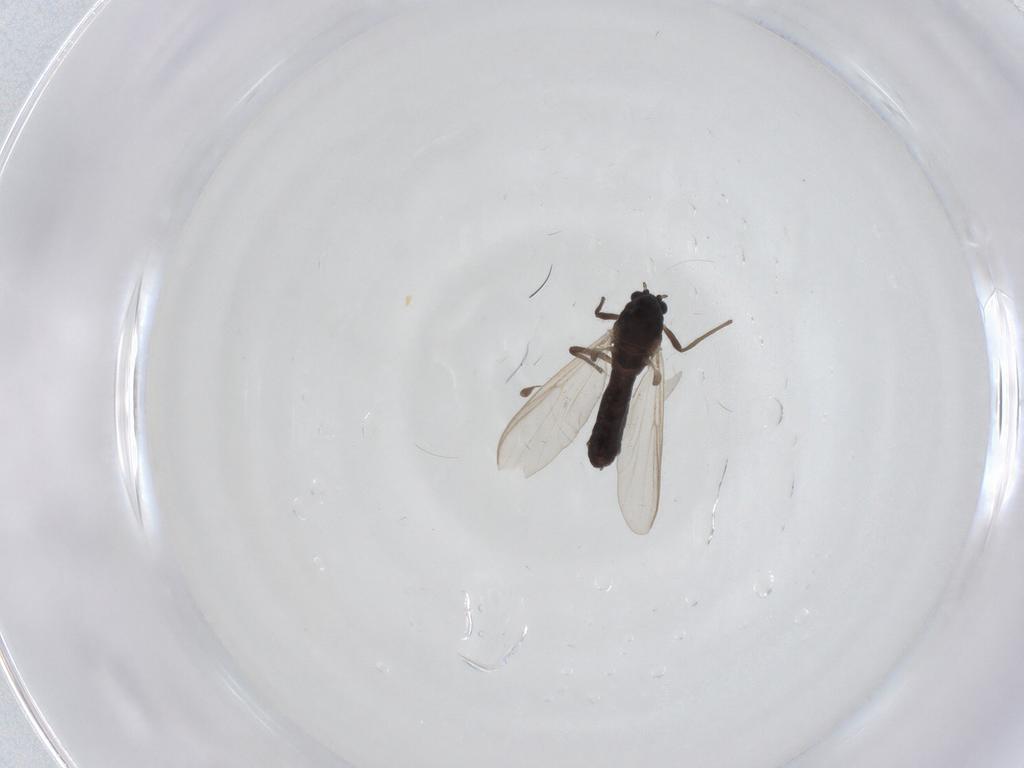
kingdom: Animalia
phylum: Arthropoda
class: Insecta
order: Diptera
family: Hybotidae
